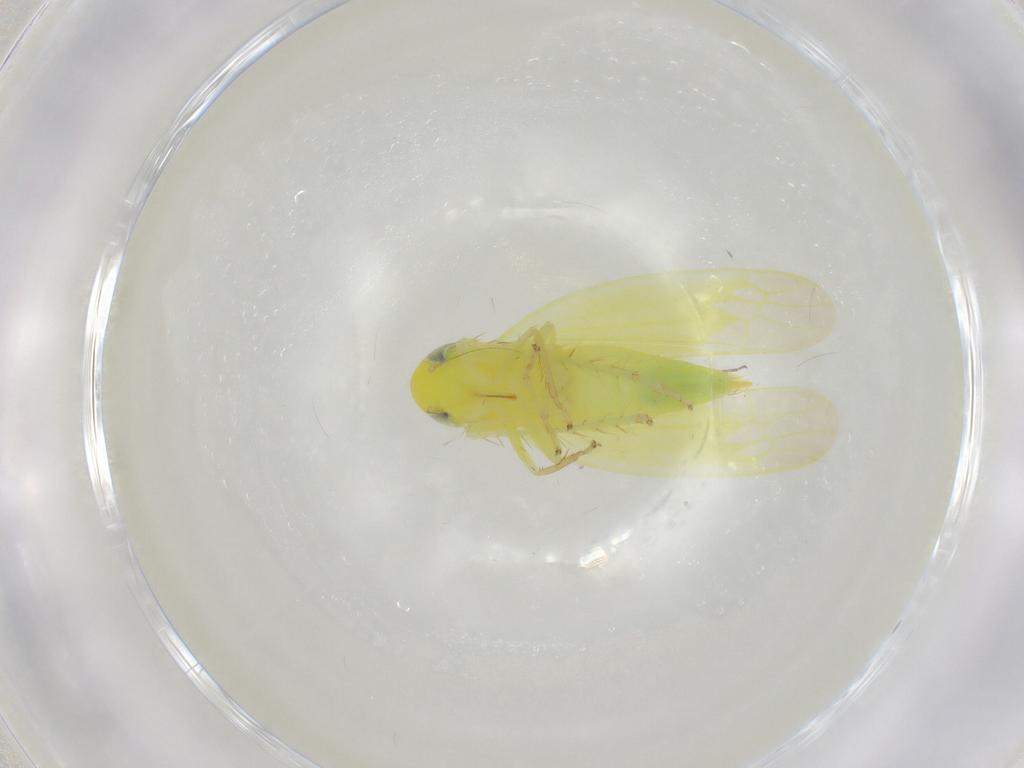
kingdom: Animalia
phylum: Arthropoda
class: Insecta
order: Hemiptera
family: Cicadellidae
